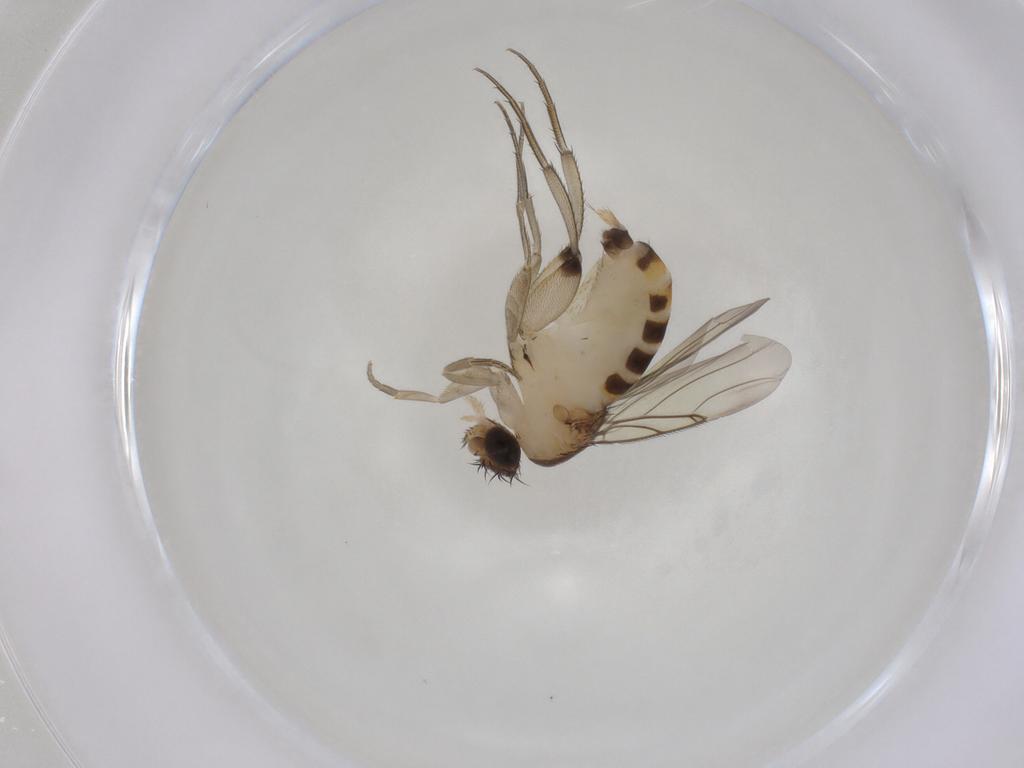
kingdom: Animalia
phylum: Arthropoda
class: Insecta
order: Diptera
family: Phoridae
